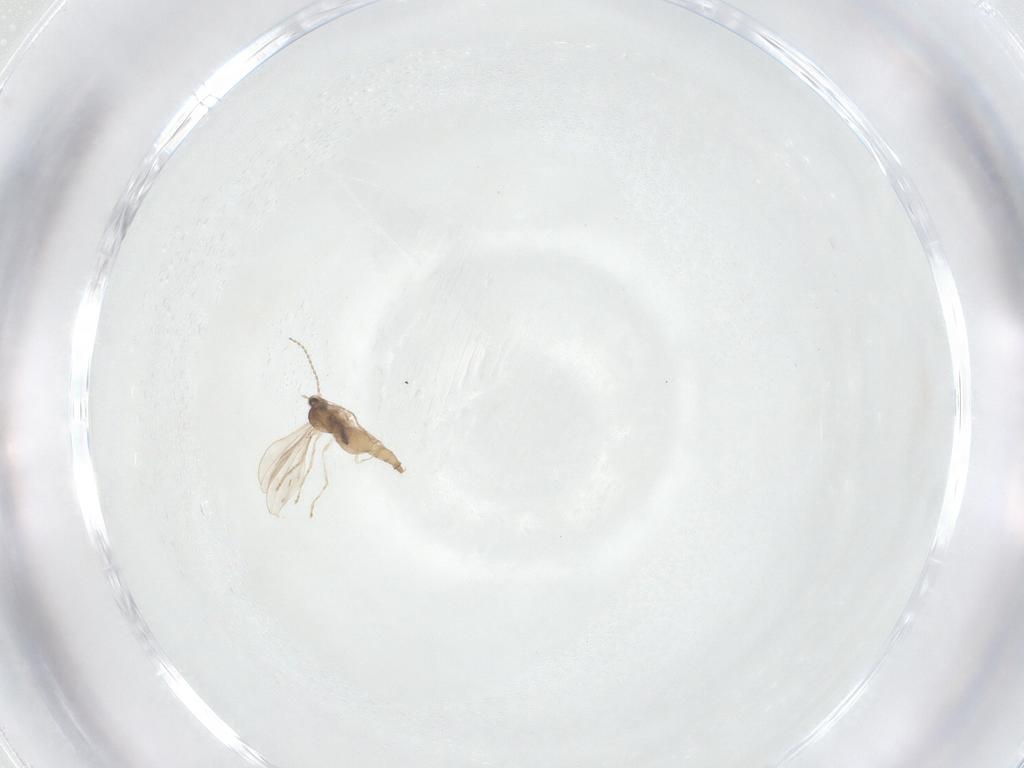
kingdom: Animalia
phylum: Arthropoda
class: Insecta
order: Diptera
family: Cecidomyiidae
